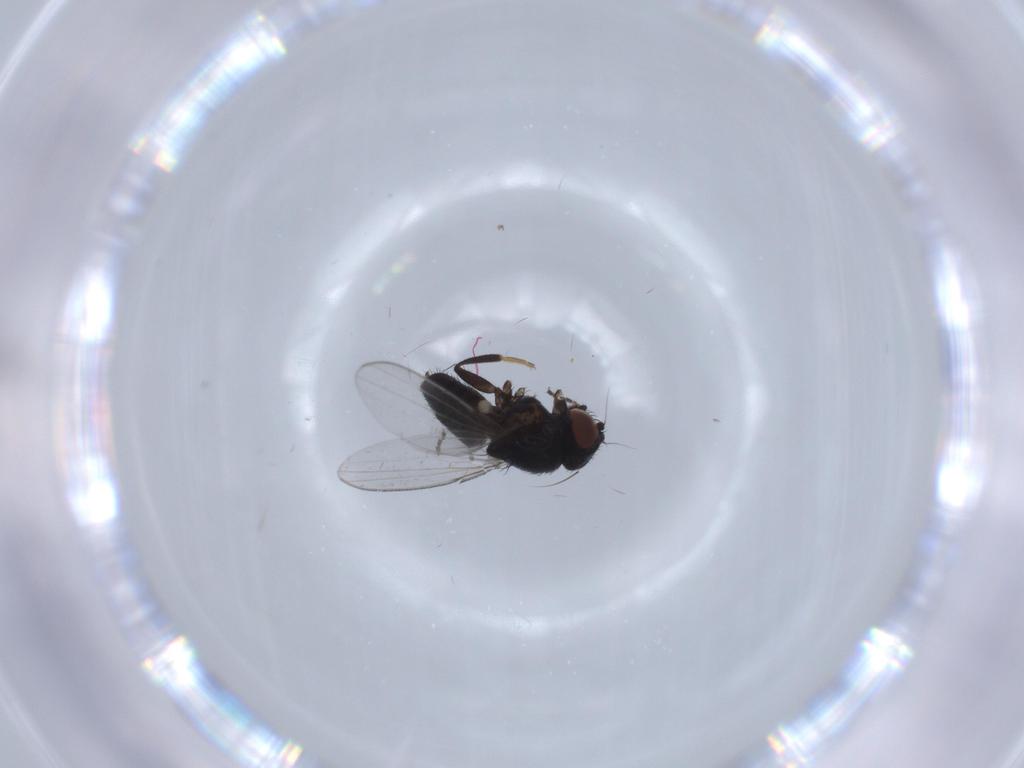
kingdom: Animalia
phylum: Arthropoda
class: Insecta
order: Diptera
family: Milichiidae
